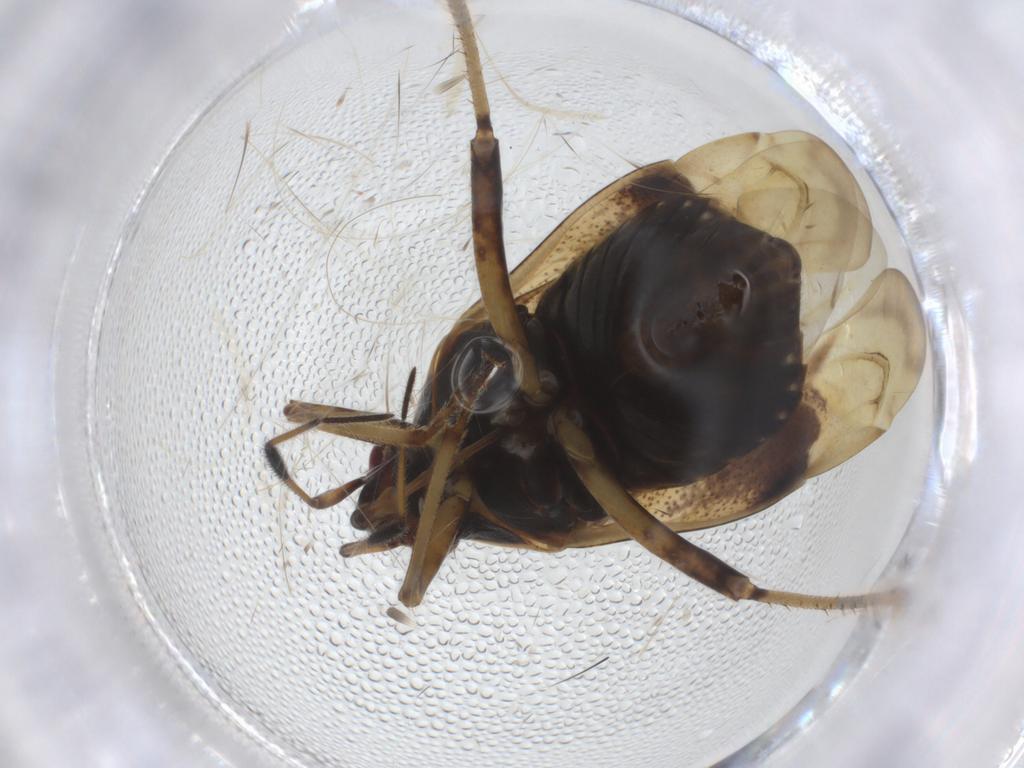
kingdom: Animalia
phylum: Arthropoda
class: Insecta
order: Hemiptera
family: Miridae
